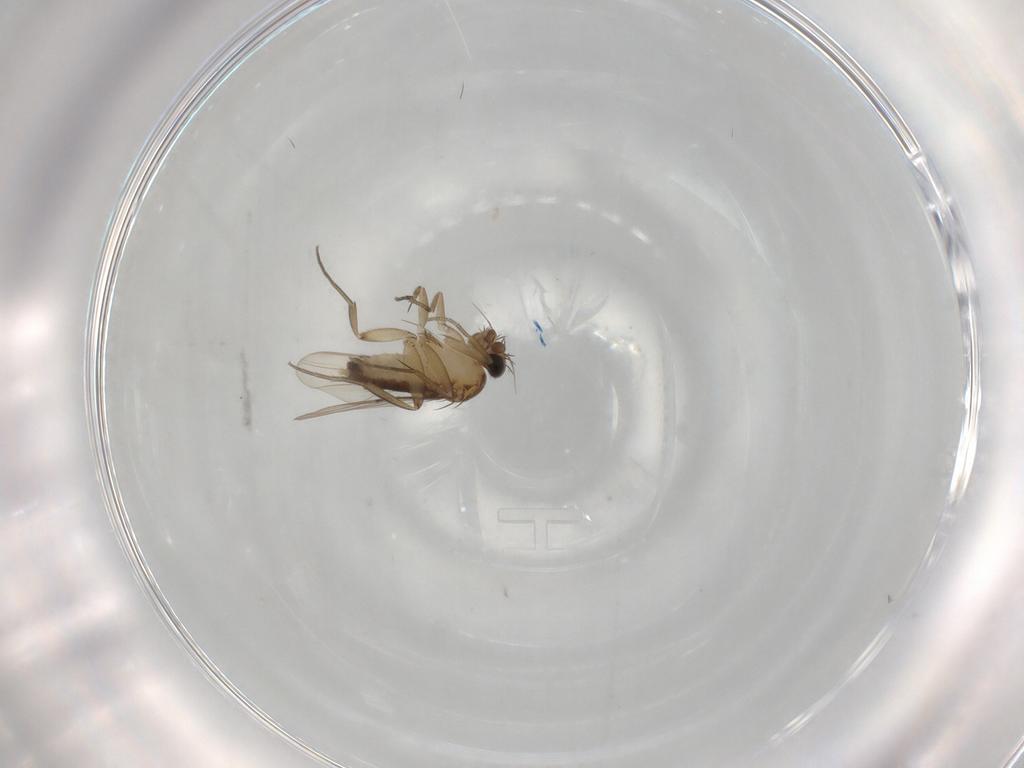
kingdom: Animalia
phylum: Arthropoda
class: Insecta
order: Diptera
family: Phoridae
